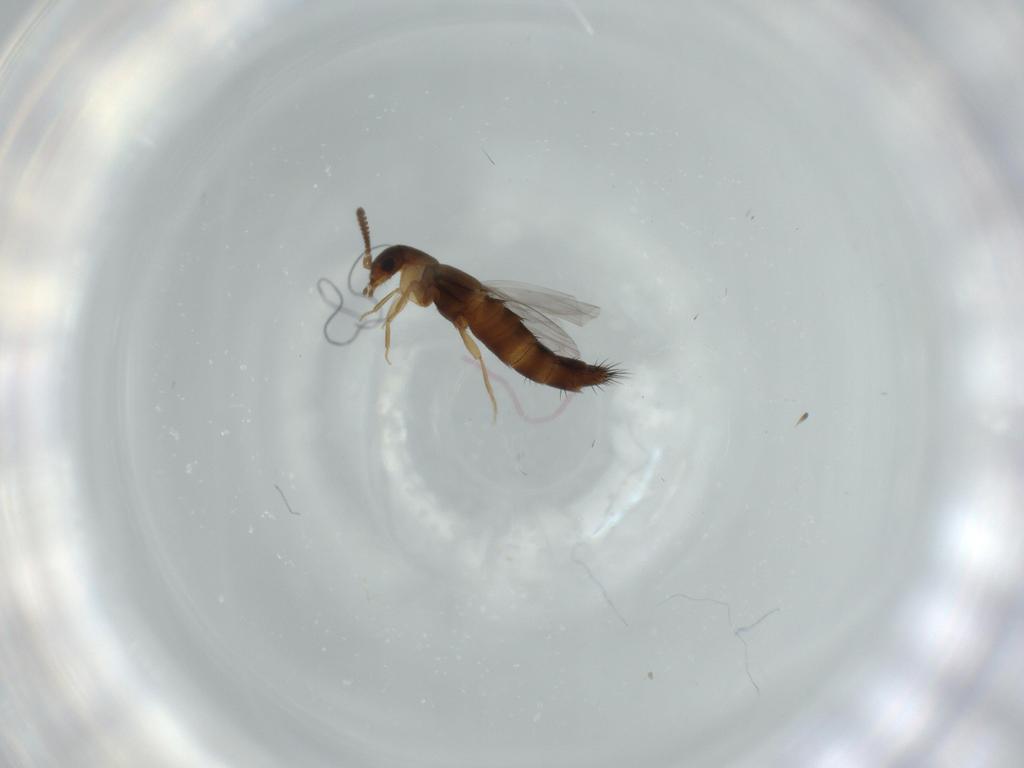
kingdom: Animalia
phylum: Arthropoda
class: Insecta
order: Coleoptera
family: Staphylinidae
